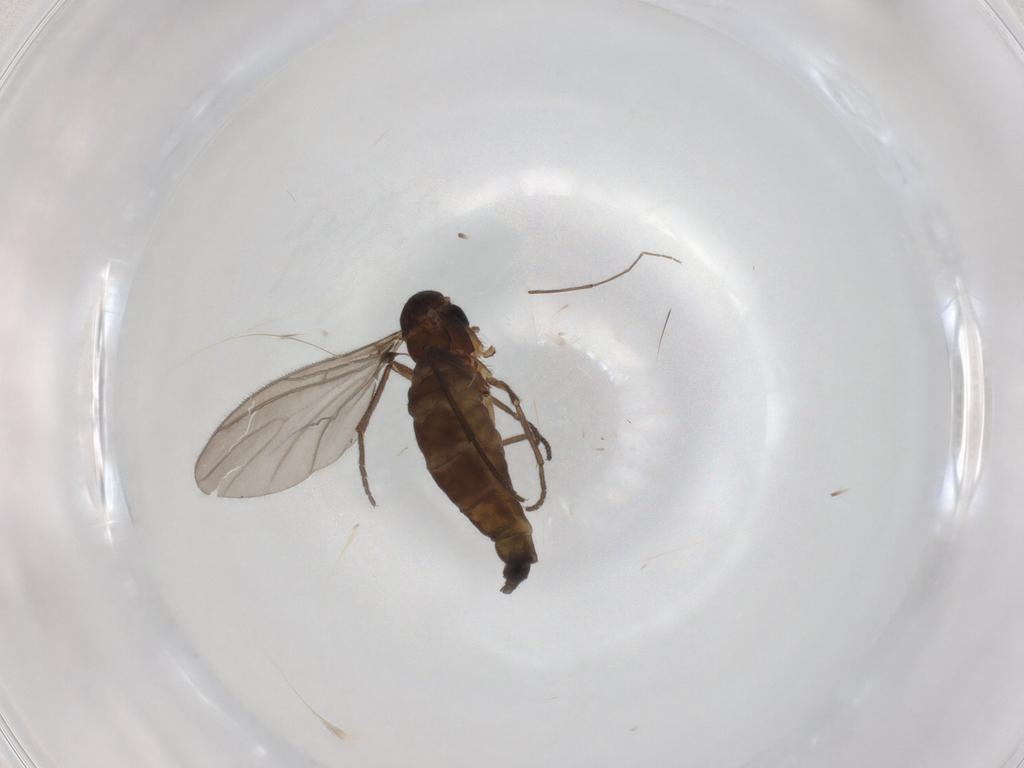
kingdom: Animalia
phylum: Arthropoda
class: Insecta
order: Diptera
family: Sciaridae
